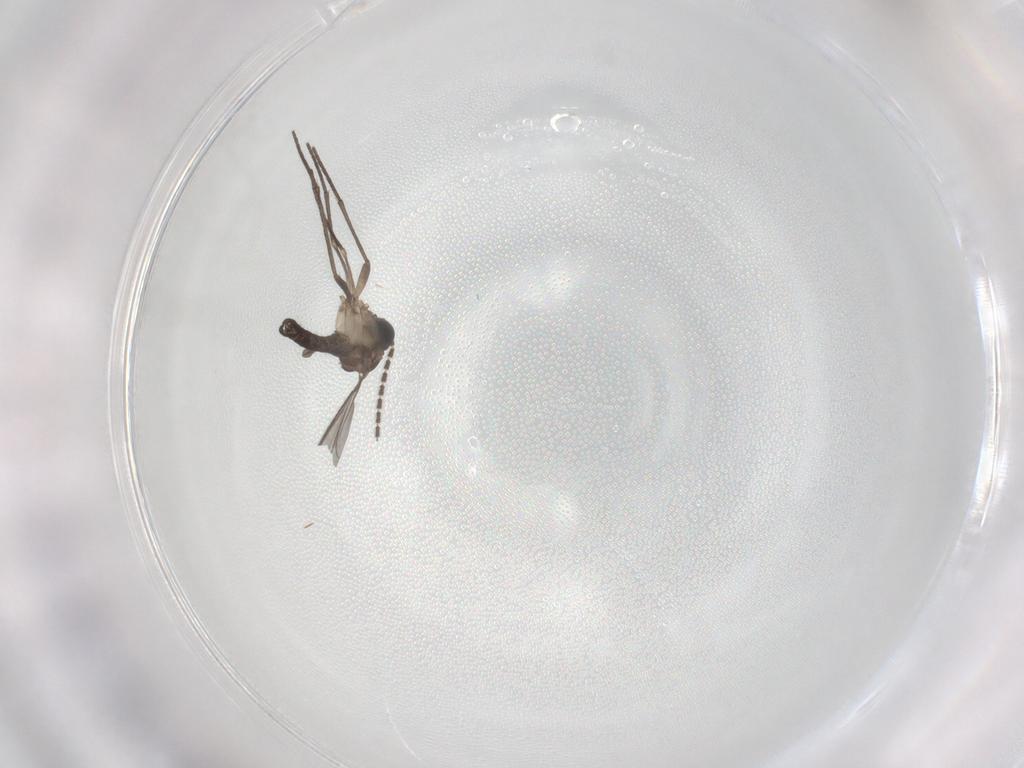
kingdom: Animalia
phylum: Arthropoda
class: Insecta
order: Diptera
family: Sciaridae
